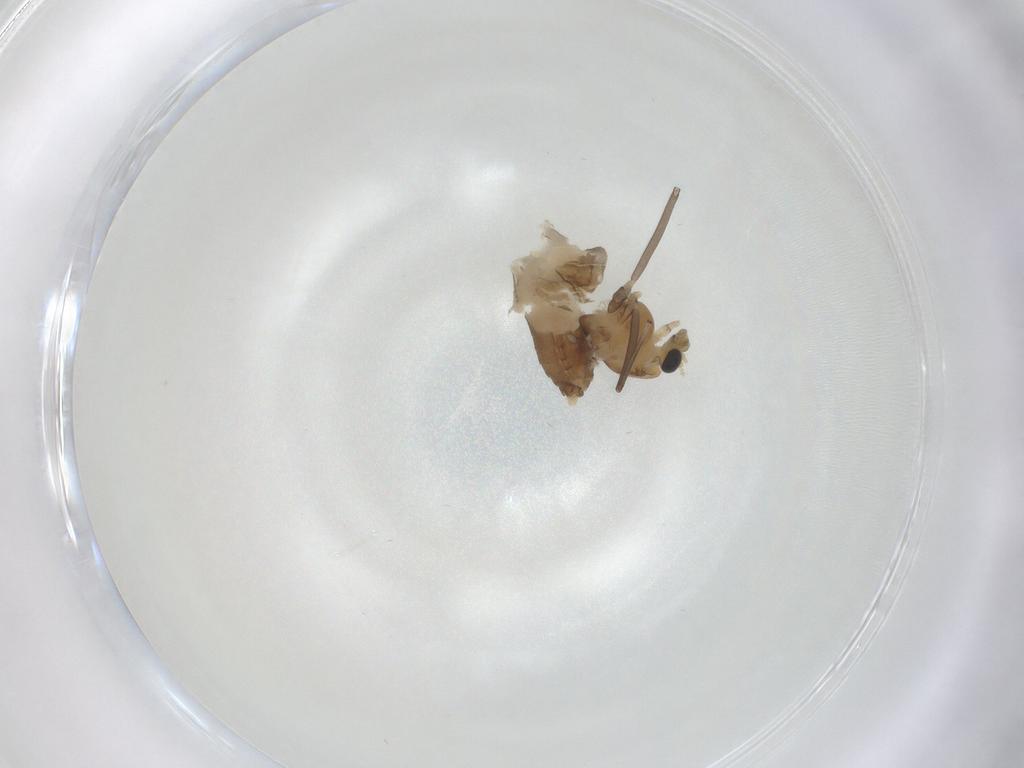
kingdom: Animalia
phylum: Arthropoda
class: Insecta
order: Diptera
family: Chironomidae
